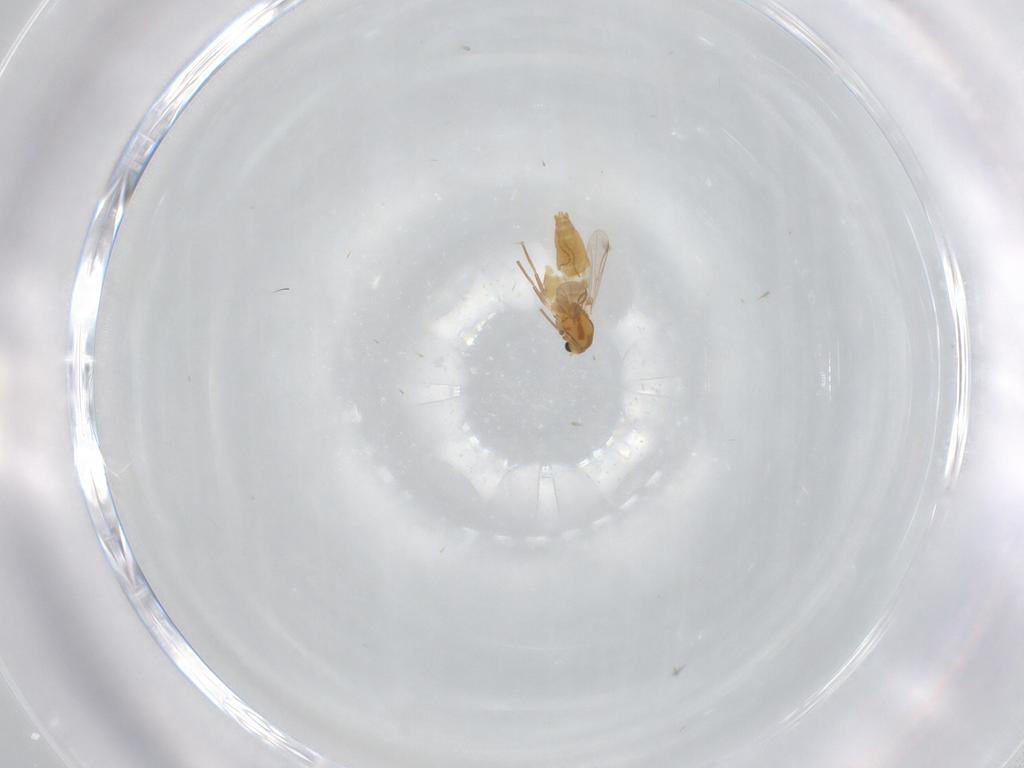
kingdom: Animalia
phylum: Arthropoda
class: Insecta
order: Diptera
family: Chironomidae
